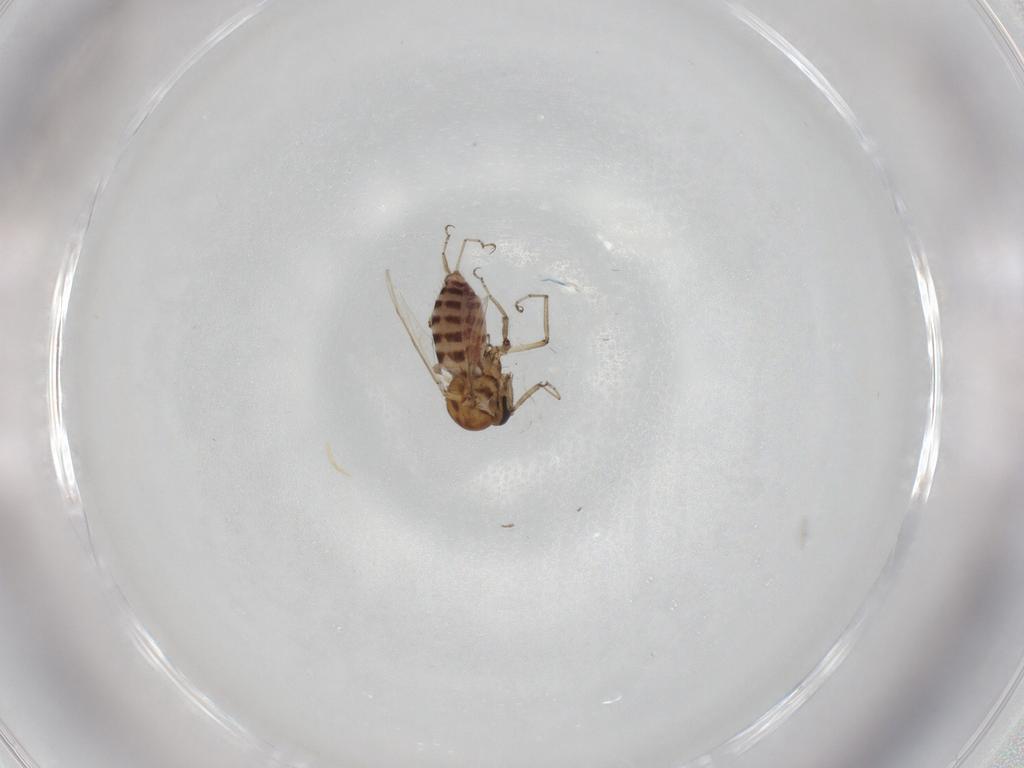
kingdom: Animalia
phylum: Arthropoda
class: Insecta
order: Diptera
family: Ceratopogonidae
